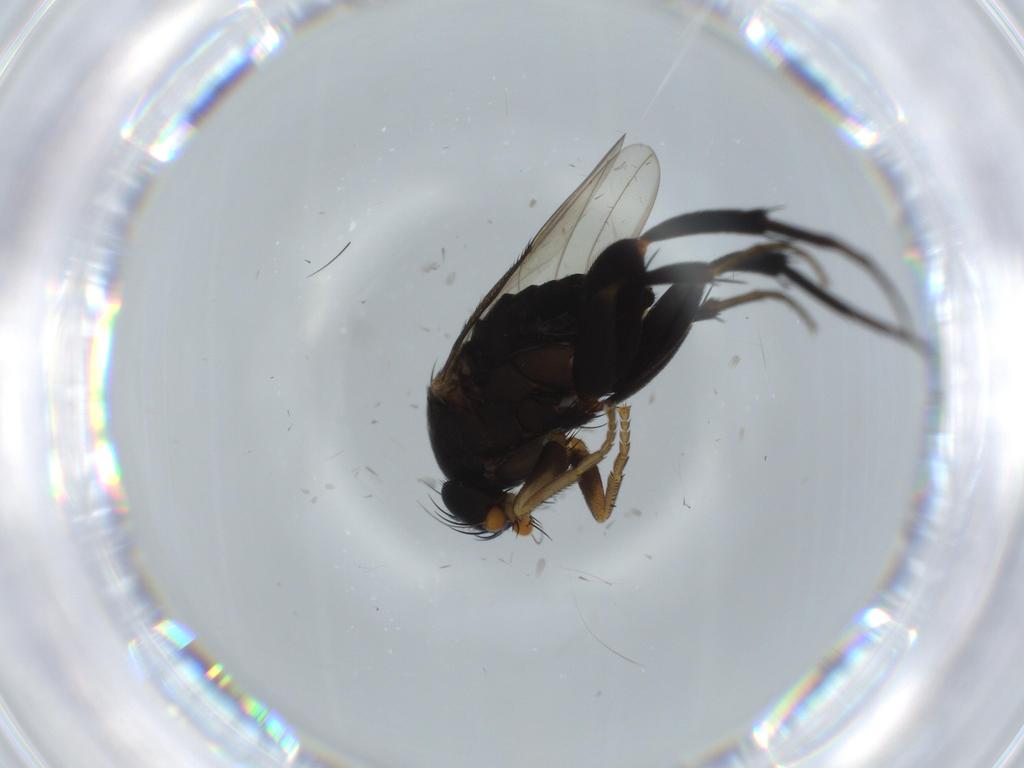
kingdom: Animalia
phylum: Arthropoda
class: Insecta
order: Diptera
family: Phoridae
